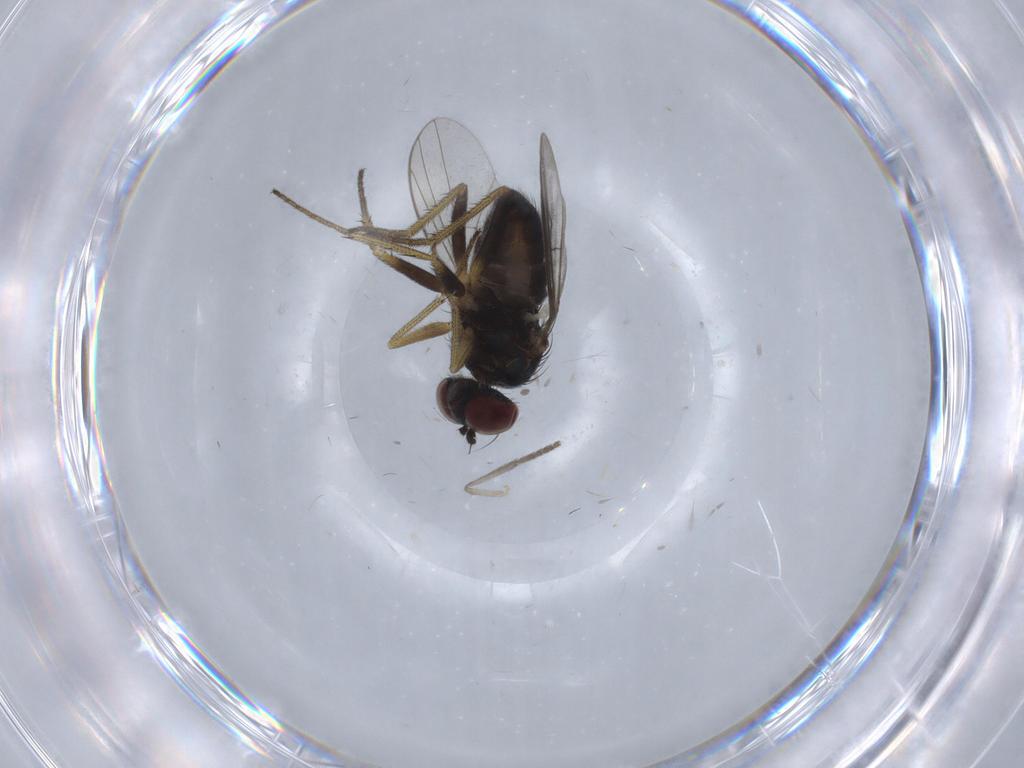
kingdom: Animalia
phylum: Arthropoda
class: Insecta
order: Diptera
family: Dolichopodidae
